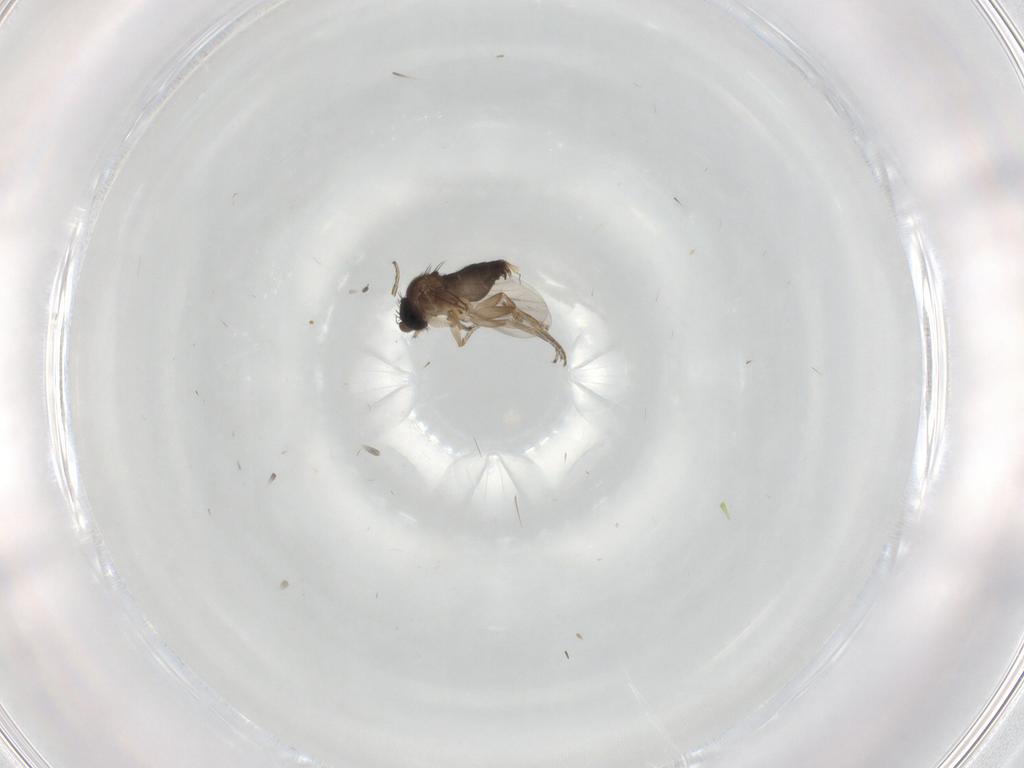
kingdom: Animalia
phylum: Arthropoda
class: Insecta
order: Diptera
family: Phoridae
